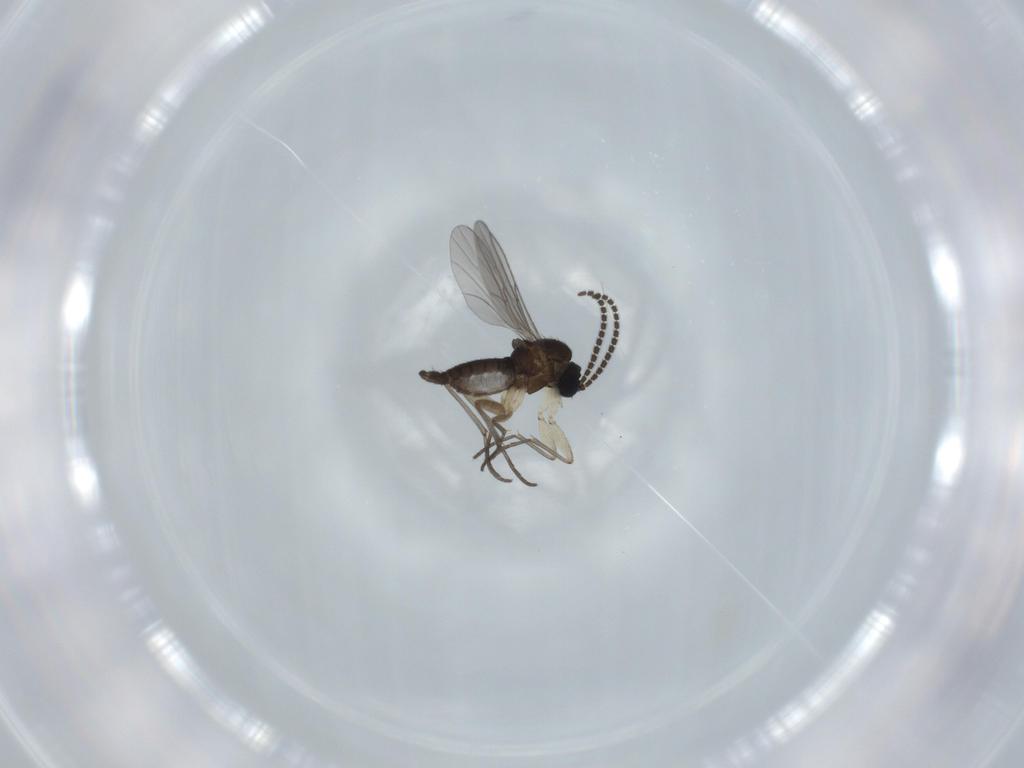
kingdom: Animalia
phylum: Arthropoda
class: Insecta
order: Diptera
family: Sciaridae
